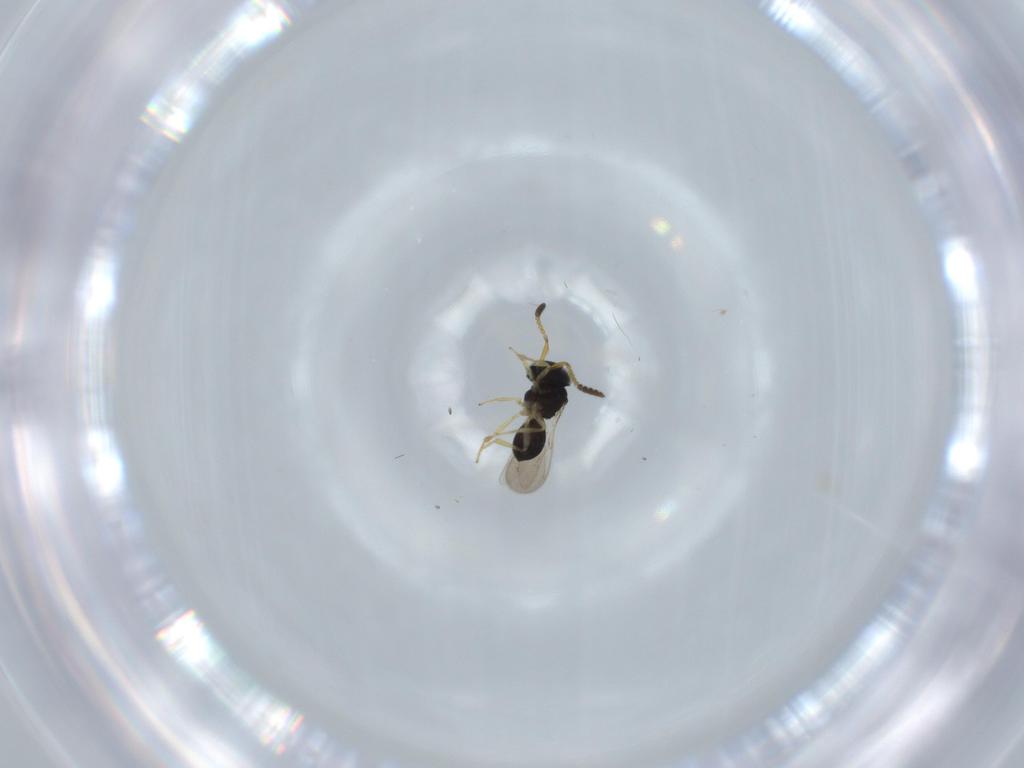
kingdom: Animalia
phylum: Arthropoda
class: Insecta
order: Hymenoptera
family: Scelionidae
